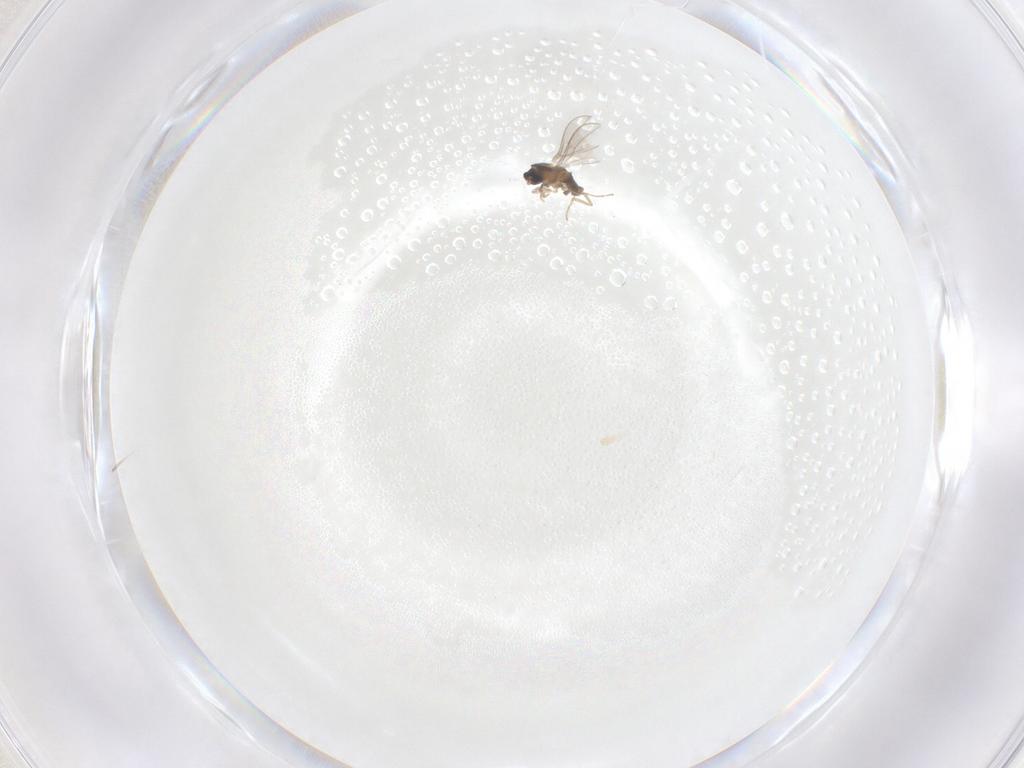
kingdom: Animalia
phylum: Arthropoda
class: Insecta
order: Diptera
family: Cecidomyiidae
